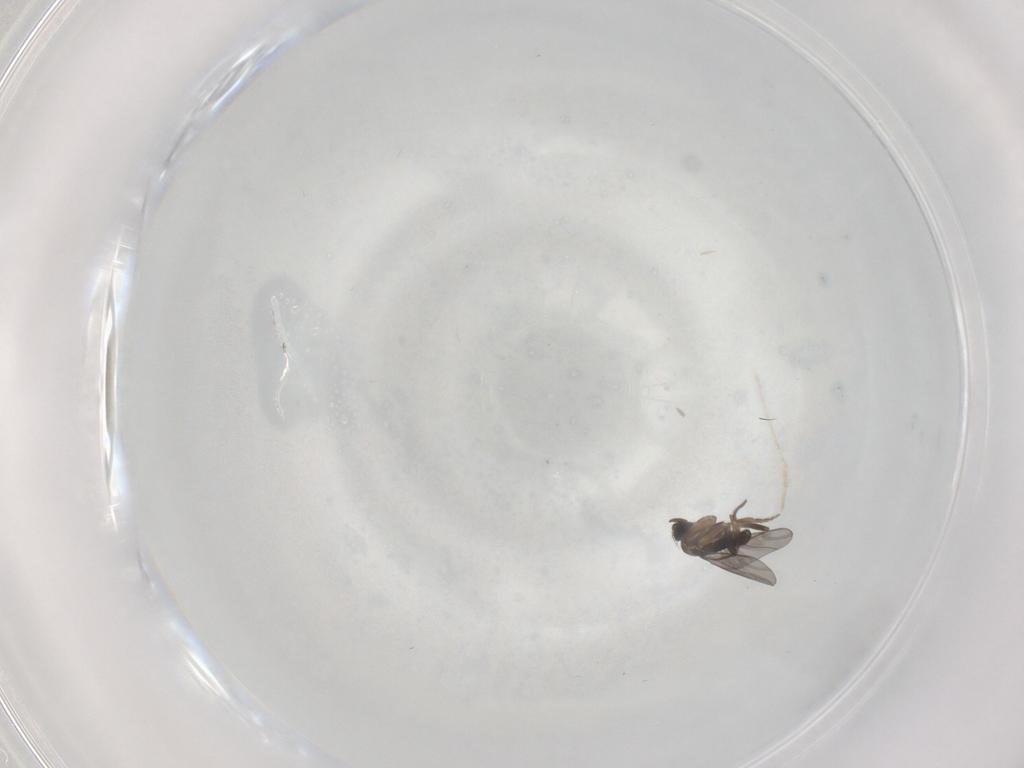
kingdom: Animalia
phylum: Arthropoda
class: Insecta
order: Diptera
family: Phoridae
